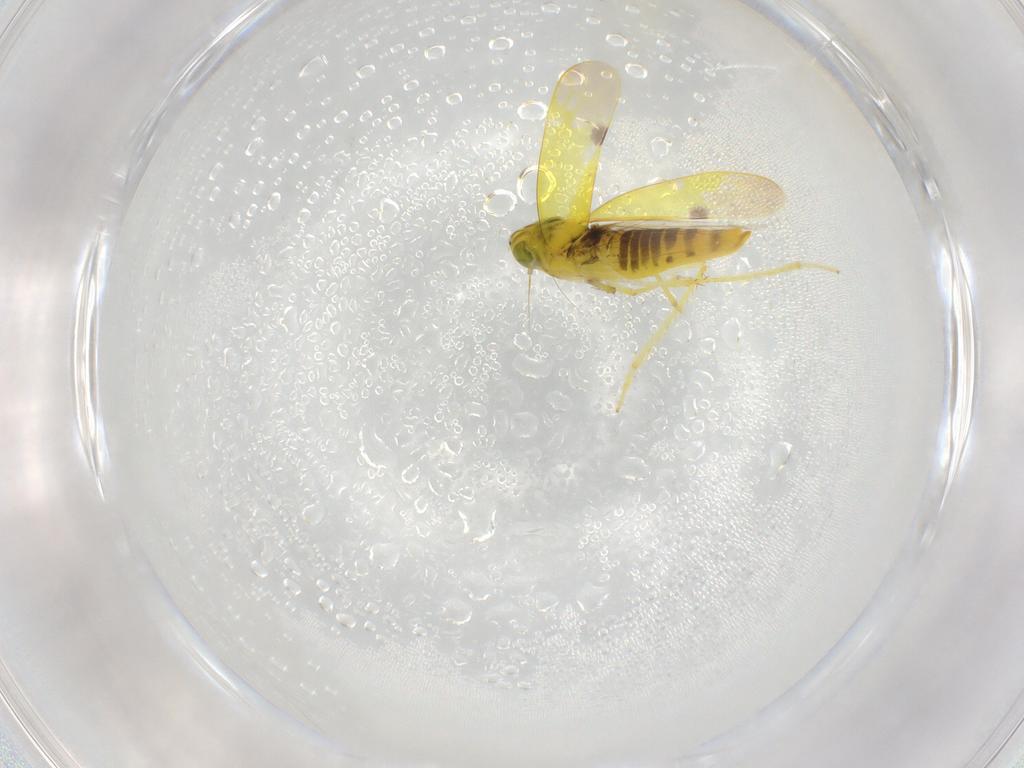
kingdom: Animalia
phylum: Arthropoda
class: Insecta
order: Hemiptera
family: Cicadellidae
